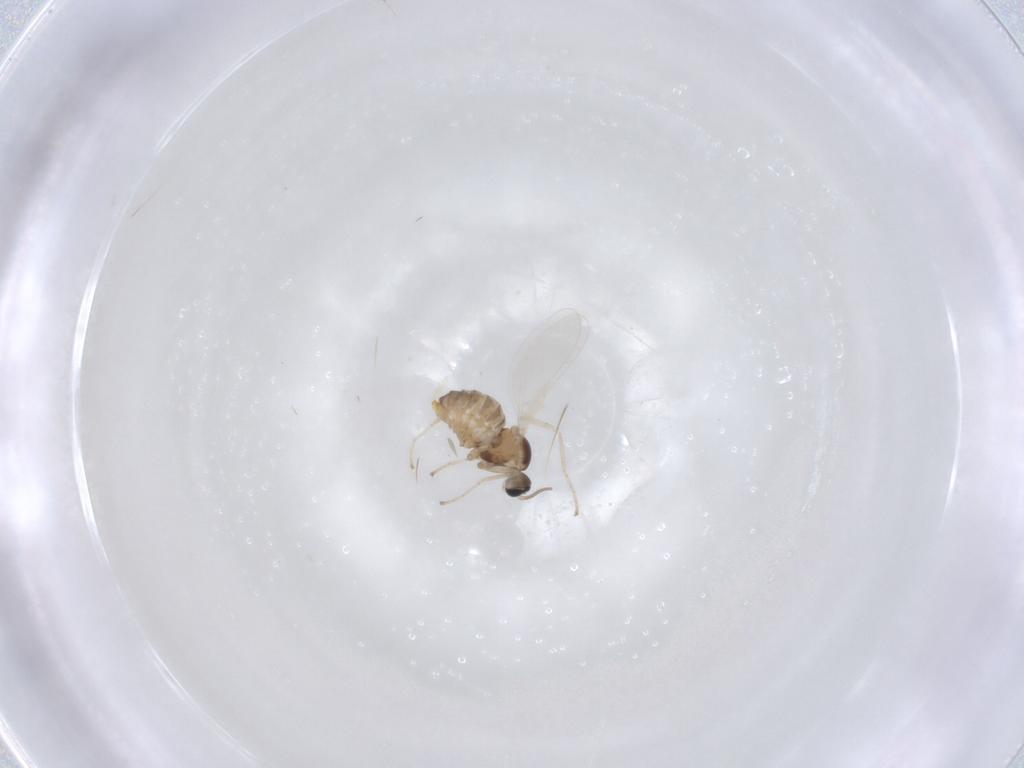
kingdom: Animalia
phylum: Arthropoda
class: Insecta
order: Diptera
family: Cecidomyiidae
